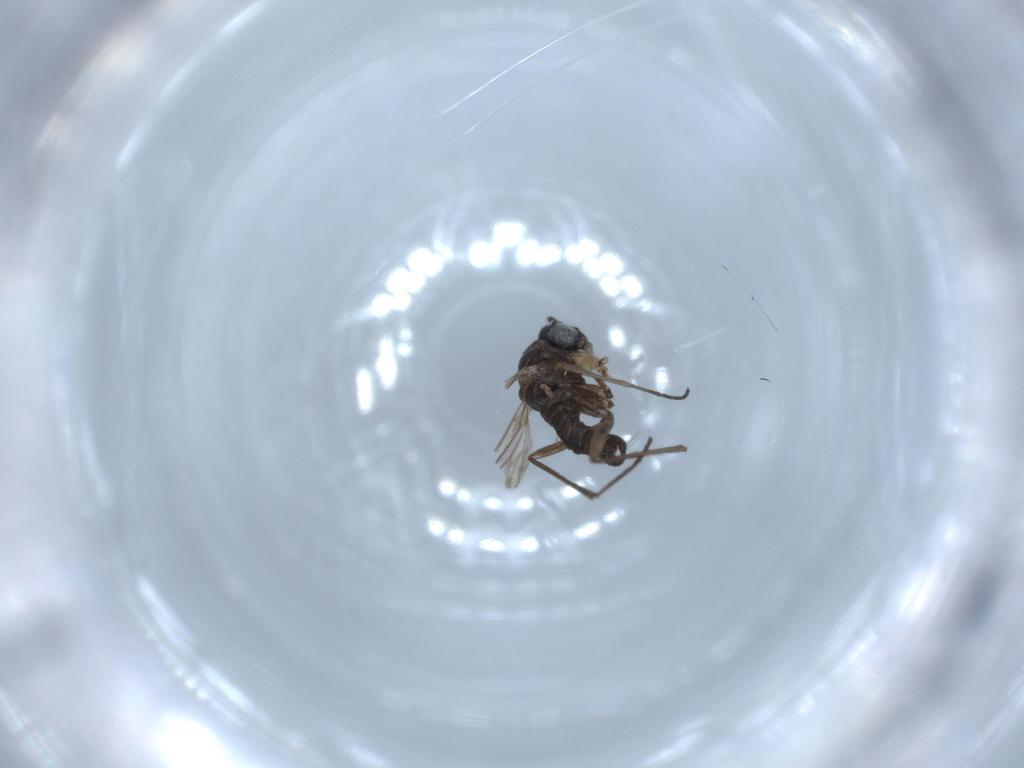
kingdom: Animalia
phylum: Arthropoda
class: Insecta
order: Diptera
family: Sciaridae
